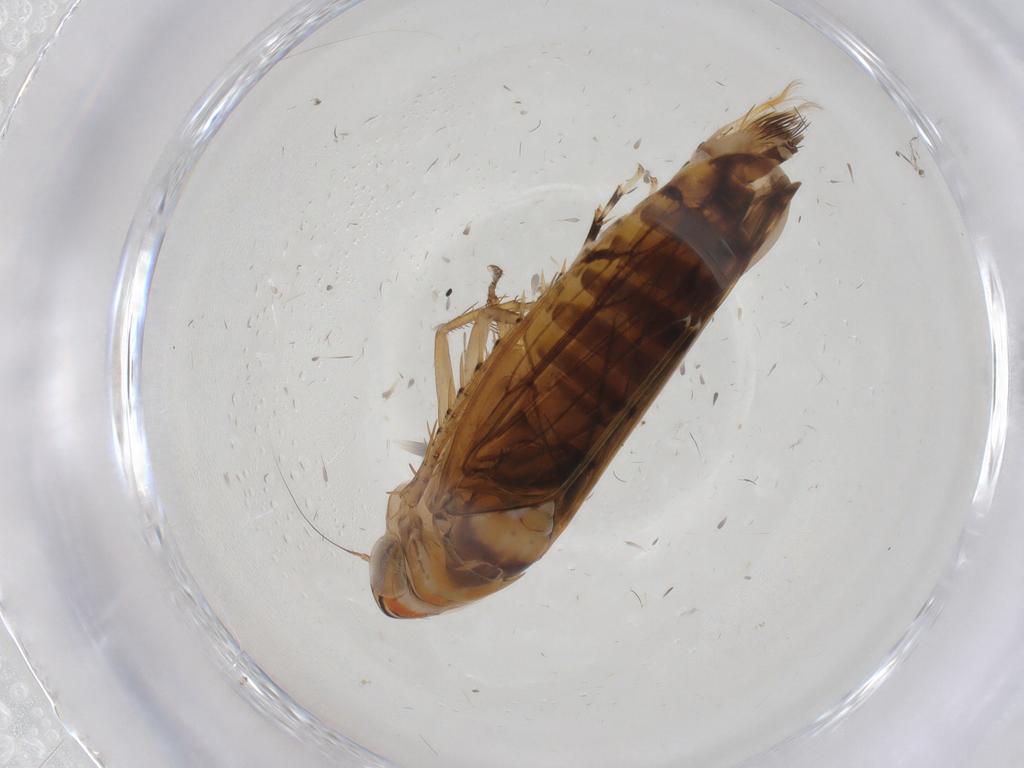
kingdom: Animalia
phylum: Arthropoda
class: Insecta
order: Hemiptera
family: Cicadellidae
